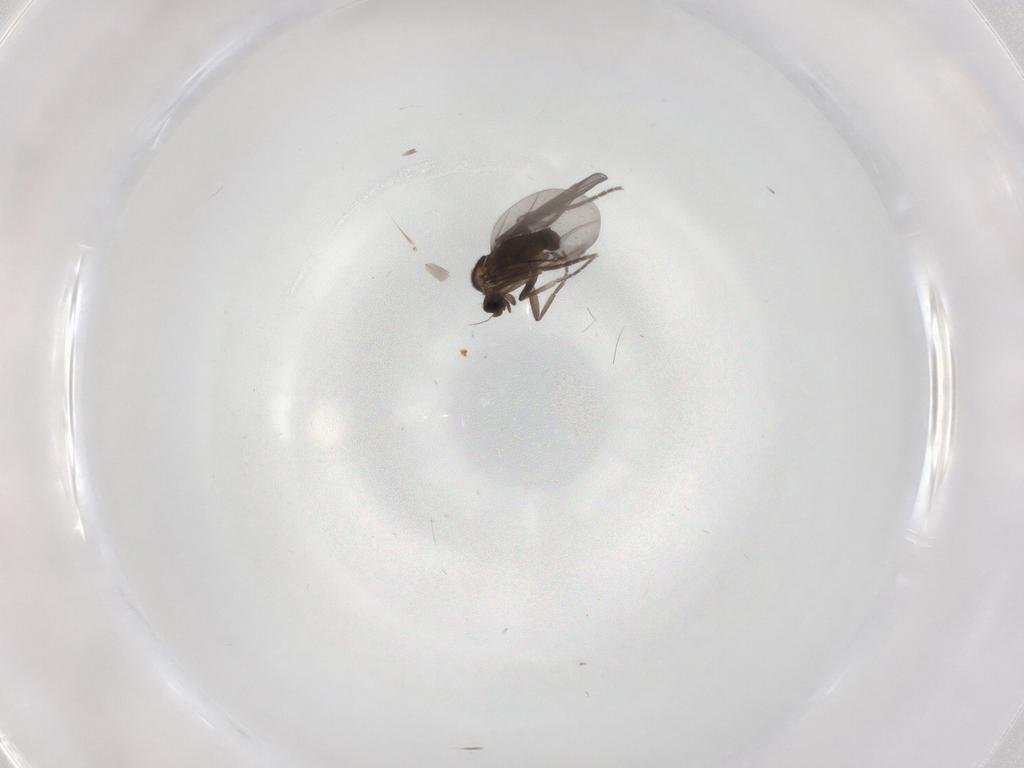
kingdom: Animalia
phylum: Arthropoda
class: Insecta
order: Diptera
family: Phoridae
